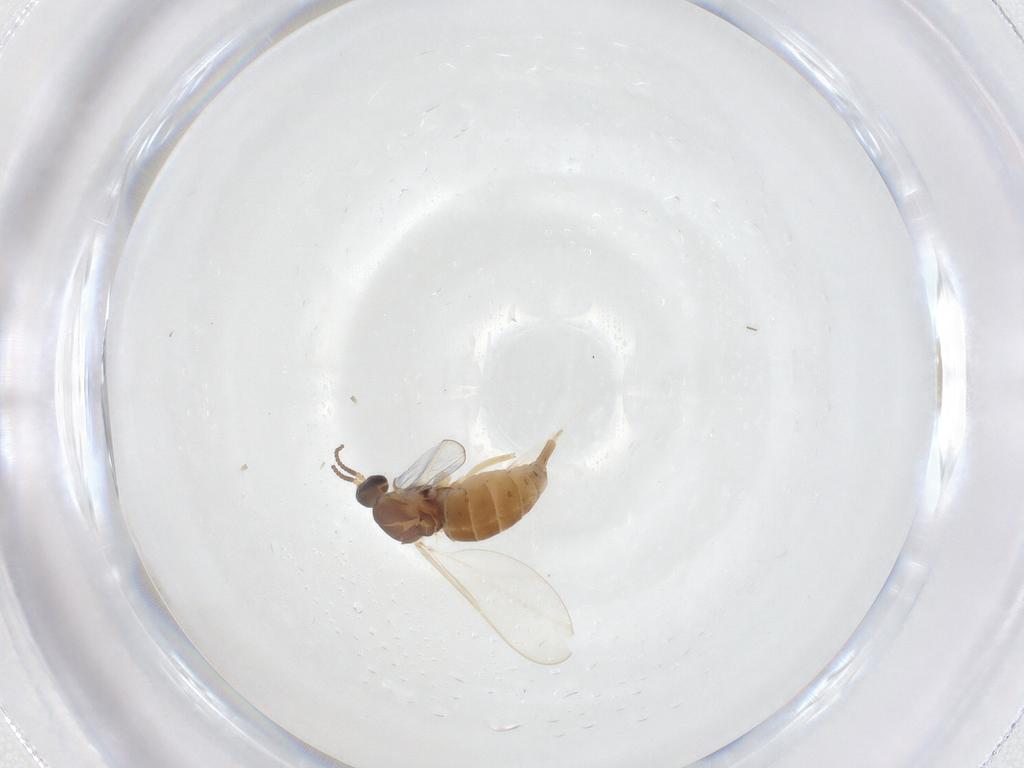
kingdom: Animalia
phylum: Arthropoda
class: Insecta
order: Diptera
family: Cecidomyiidae
